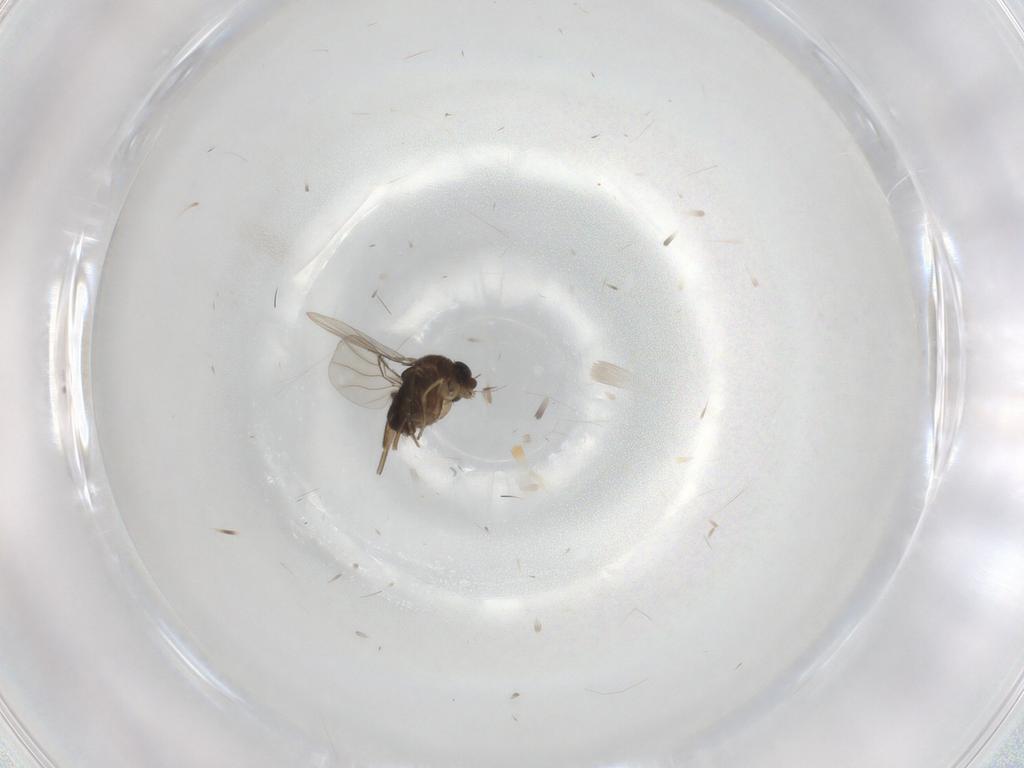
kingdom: Animalia
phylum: Arthropoda
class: Insecta
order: Diptera
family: Phoridae
